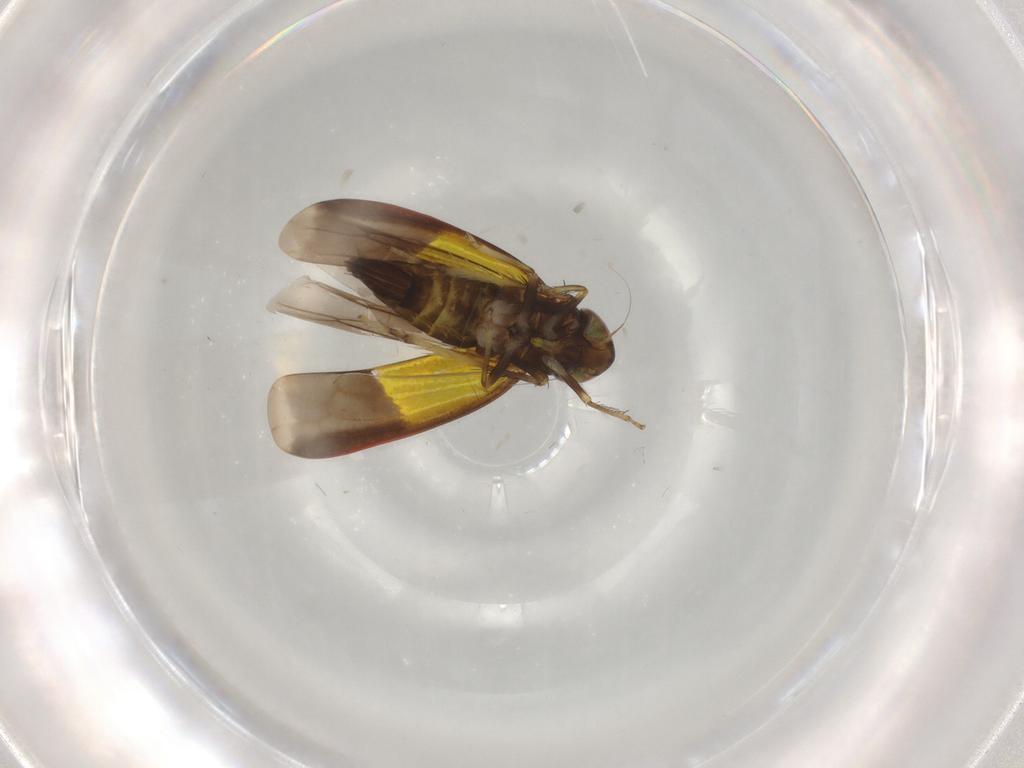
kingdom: Animalia
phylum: Arthropoda
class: Insecta
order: Hemiptera
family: Cicadellidae
